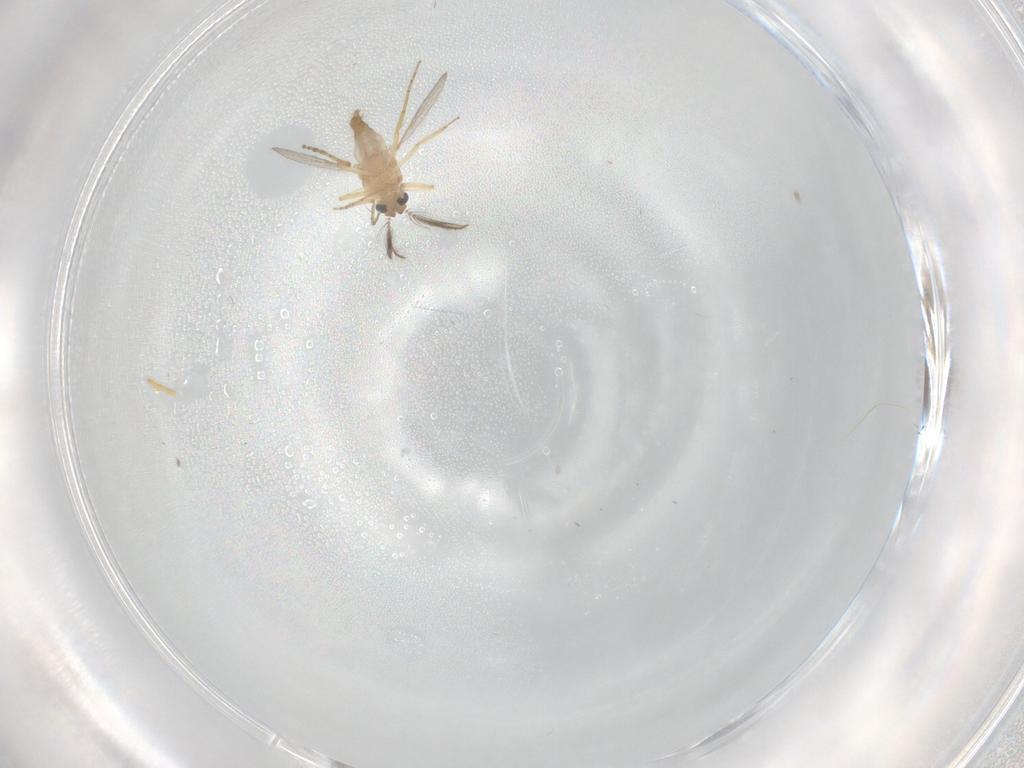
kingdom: Animalia
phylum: Arthropoda
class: Insecta
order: Diptera
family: Ceratopogonidae
